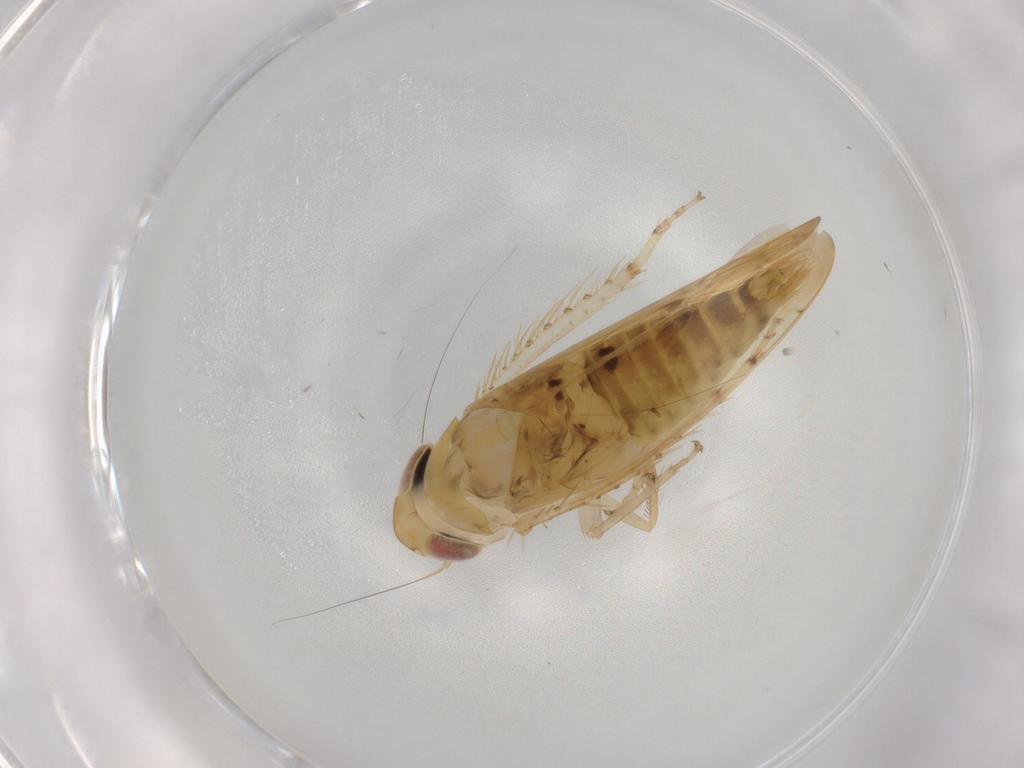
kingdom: Animalia
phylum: Arthropoda
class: Insecta
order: Hemiptera
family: Cicadellidae
